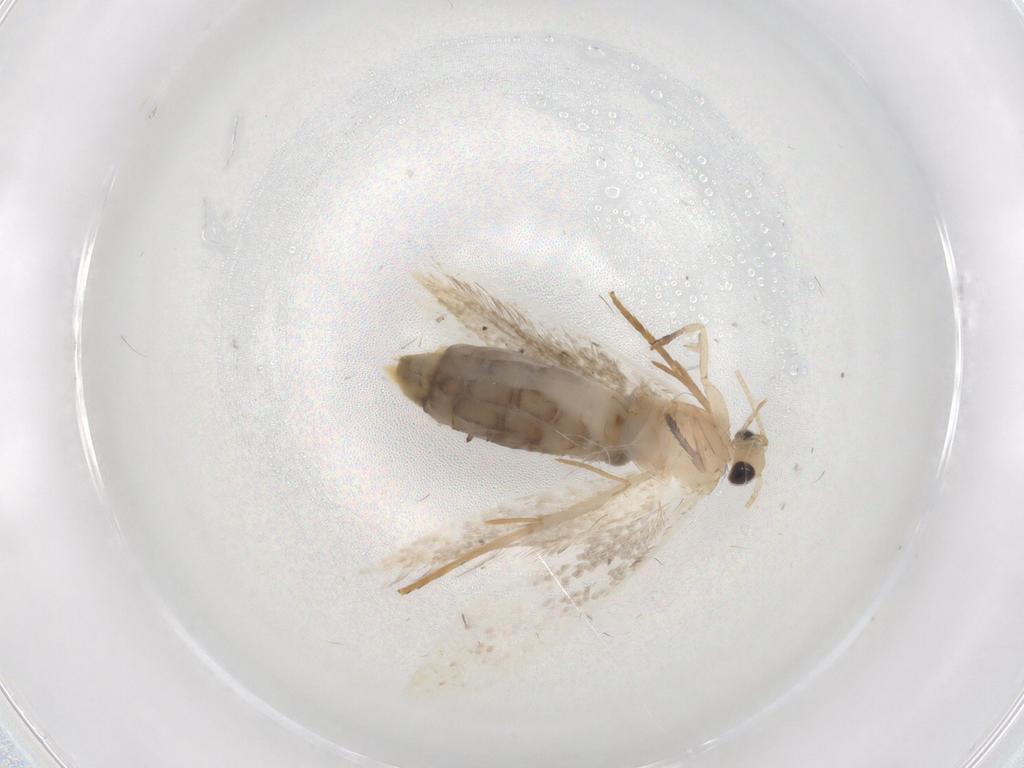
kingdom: Animalia
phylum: Arthropoda
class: Insecta
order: Lepidoptera
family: Tineidae
